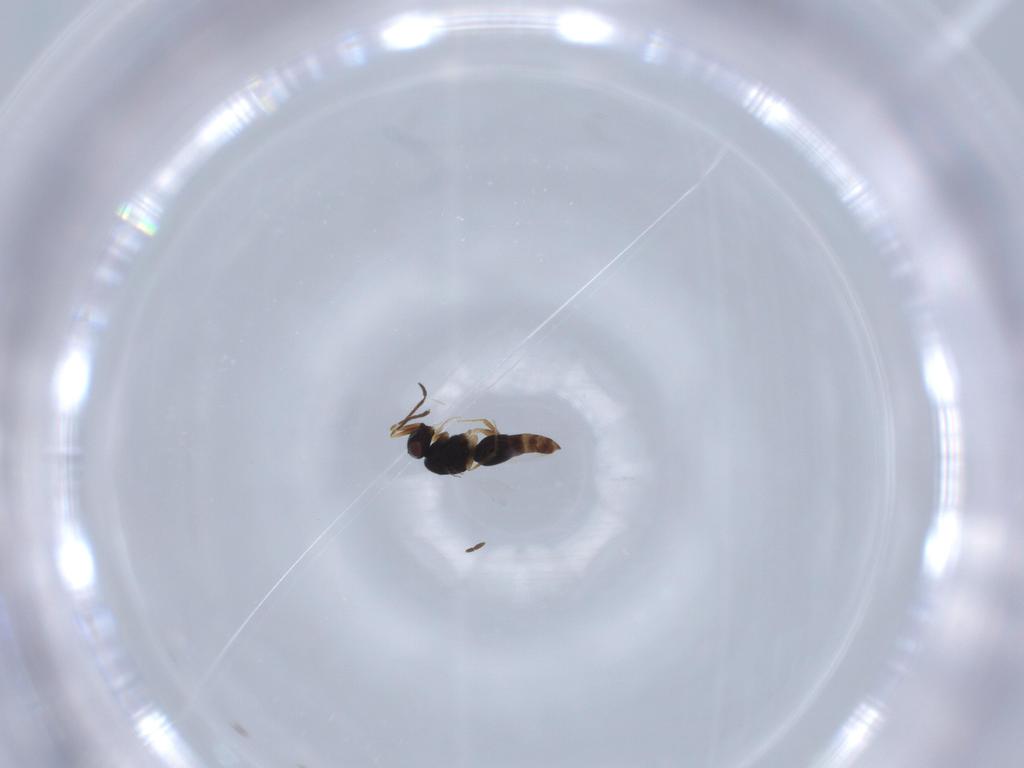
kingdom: Animalia
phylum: Arthropoda
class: Insecta
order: Hymenoptera
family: Ceraphronidae
